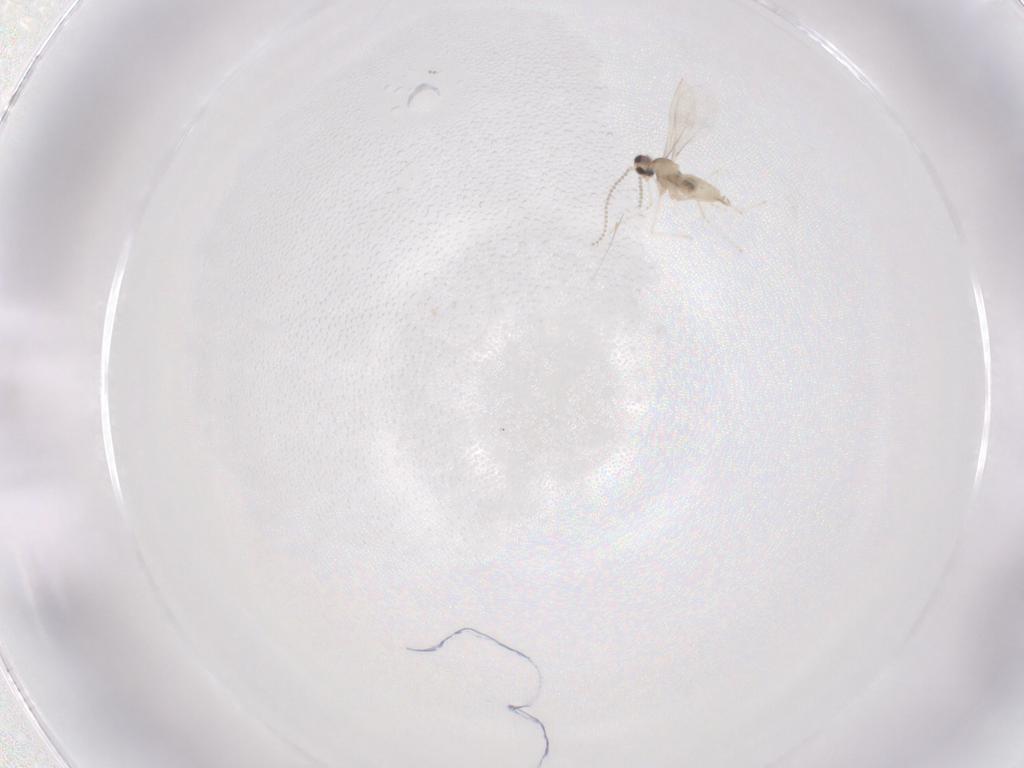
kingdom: Animalia
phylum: Arthropoda
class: Insecta
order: Diptera
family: Cecidomyiidae
